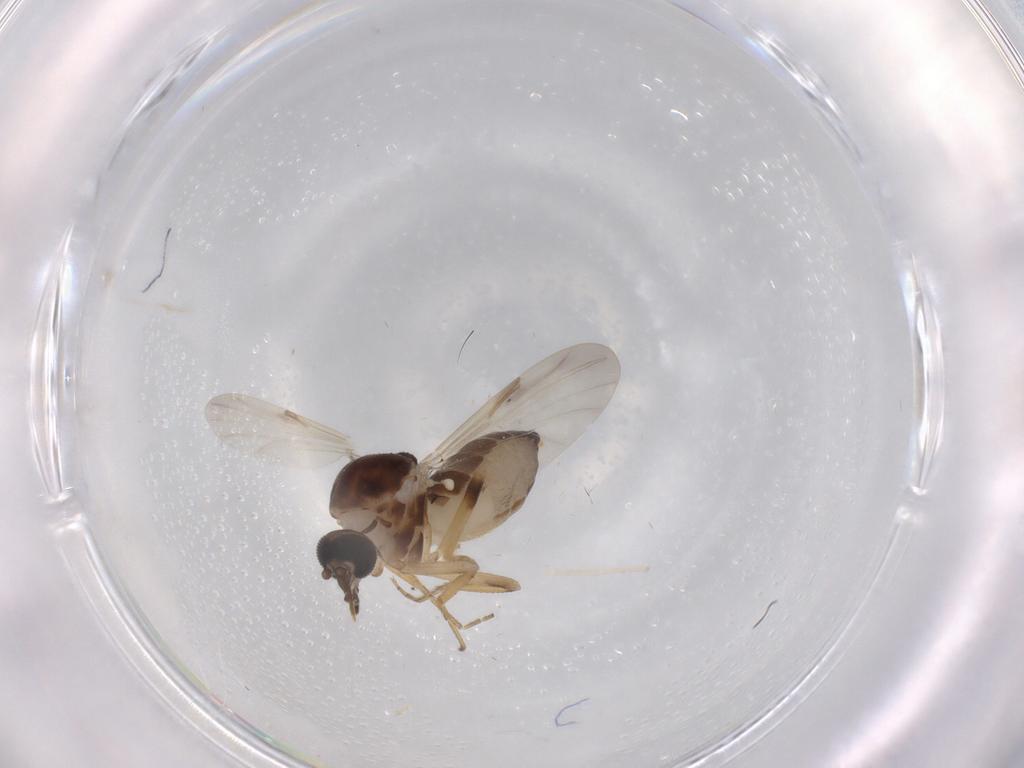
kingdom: Animalia
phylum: Arthropoda
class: Insecta
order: Diptera
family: Ceratopogonidae
